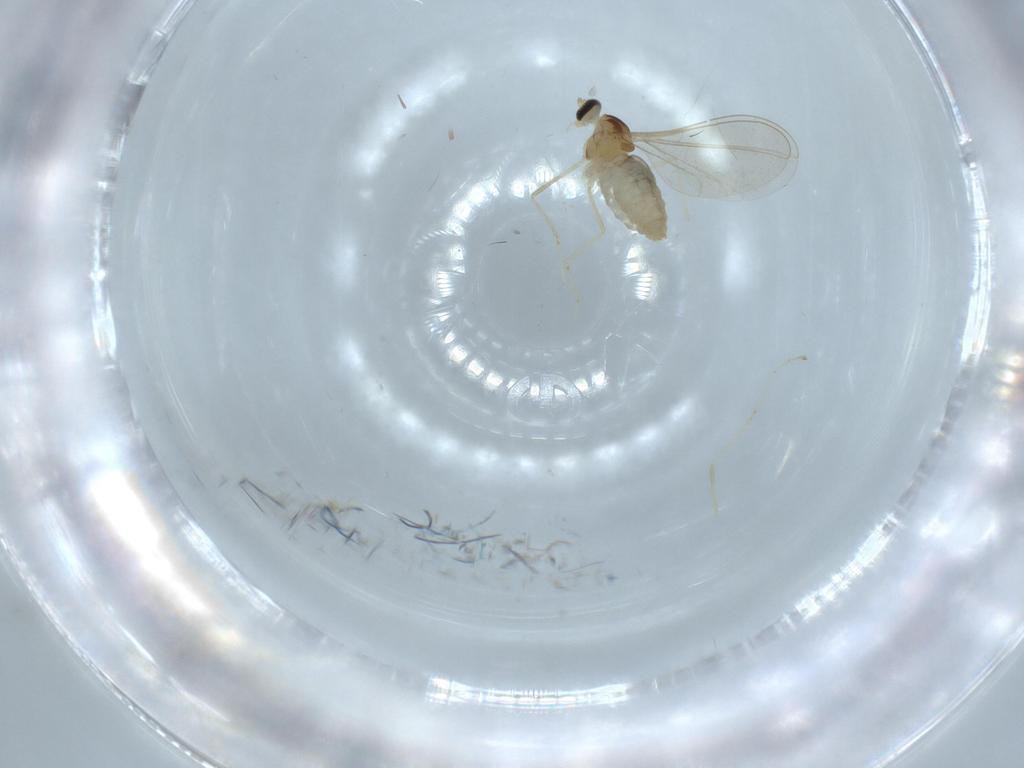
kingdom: Animalia
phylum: Arthropoda
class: Insecta
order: Diptera
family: Cecidomyiidae
